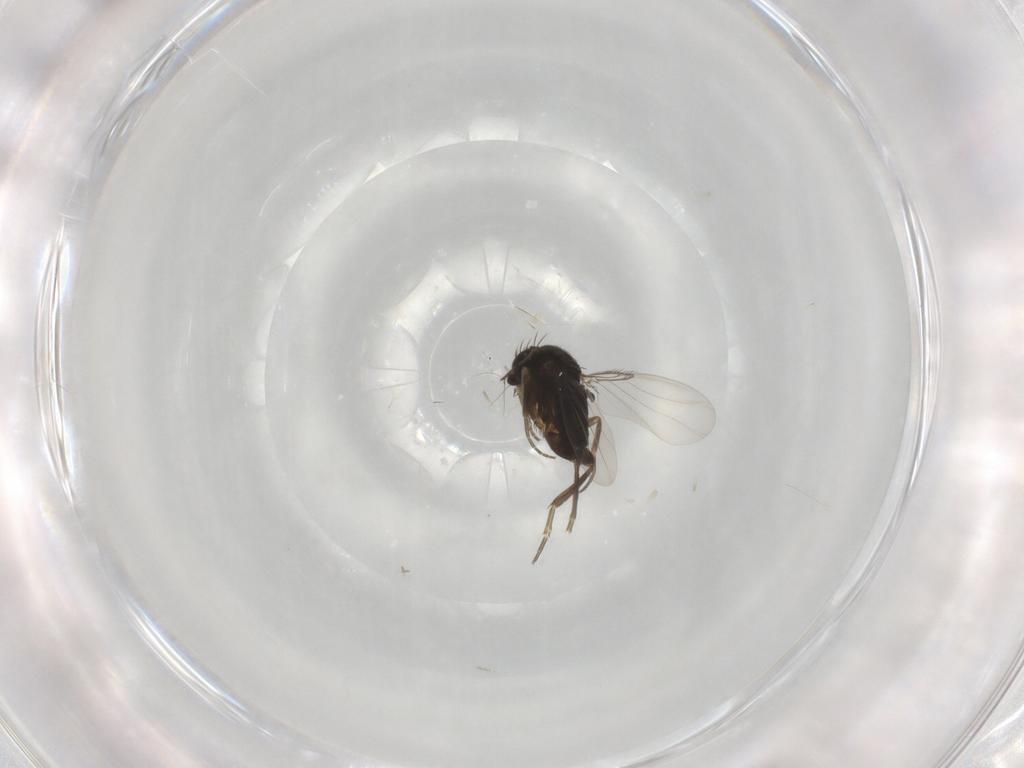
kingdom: Animalia
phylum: Arthropoda
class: Insecta
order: Diptera
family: Phoridae
